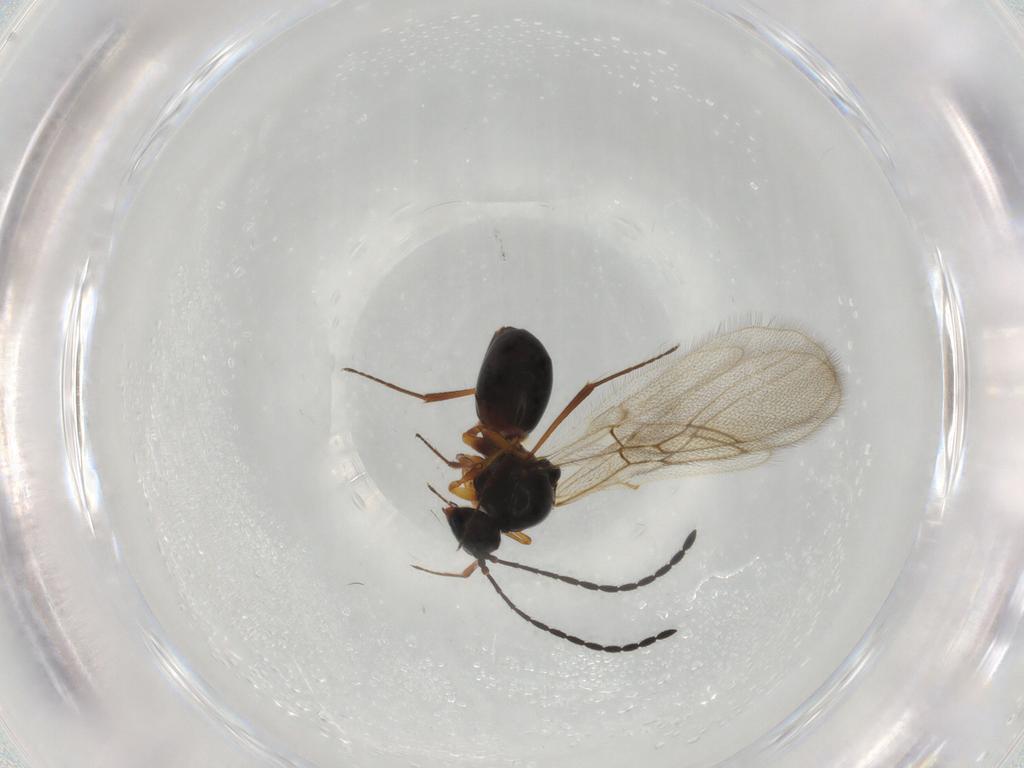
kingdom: Animalia
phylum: Arthropoda
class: Insecta
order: Hymenoptera
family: Figitidae
